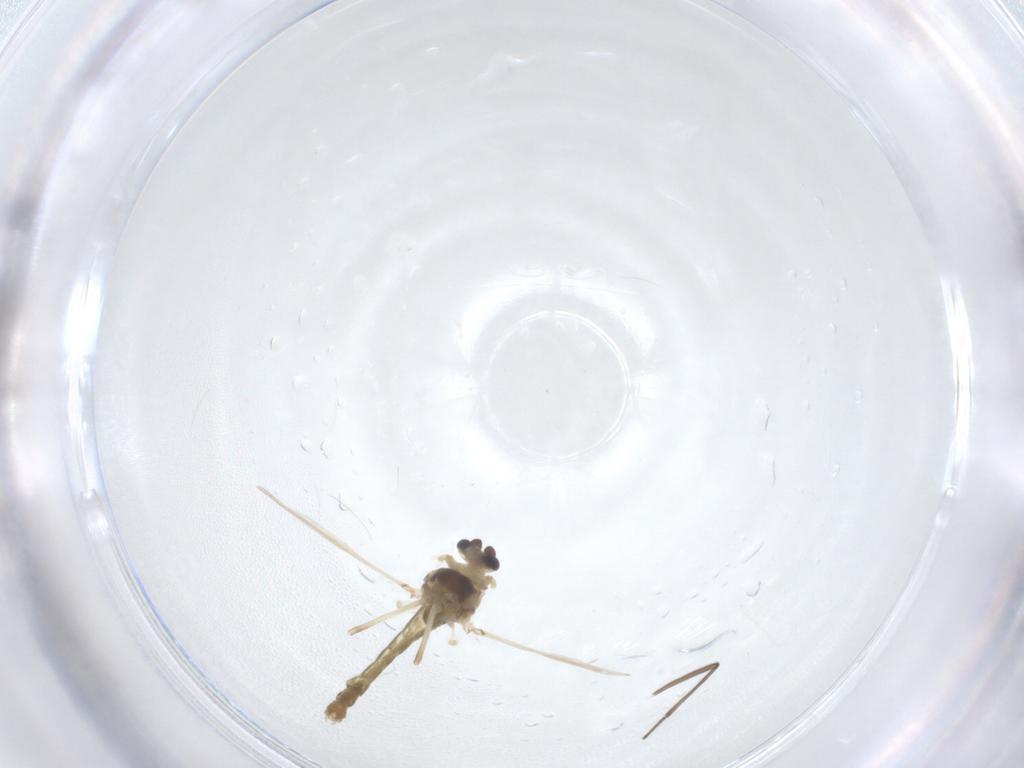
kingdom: Animalia
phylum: Arthropoda
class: Insecta
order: Diptera
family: Chironomidae
